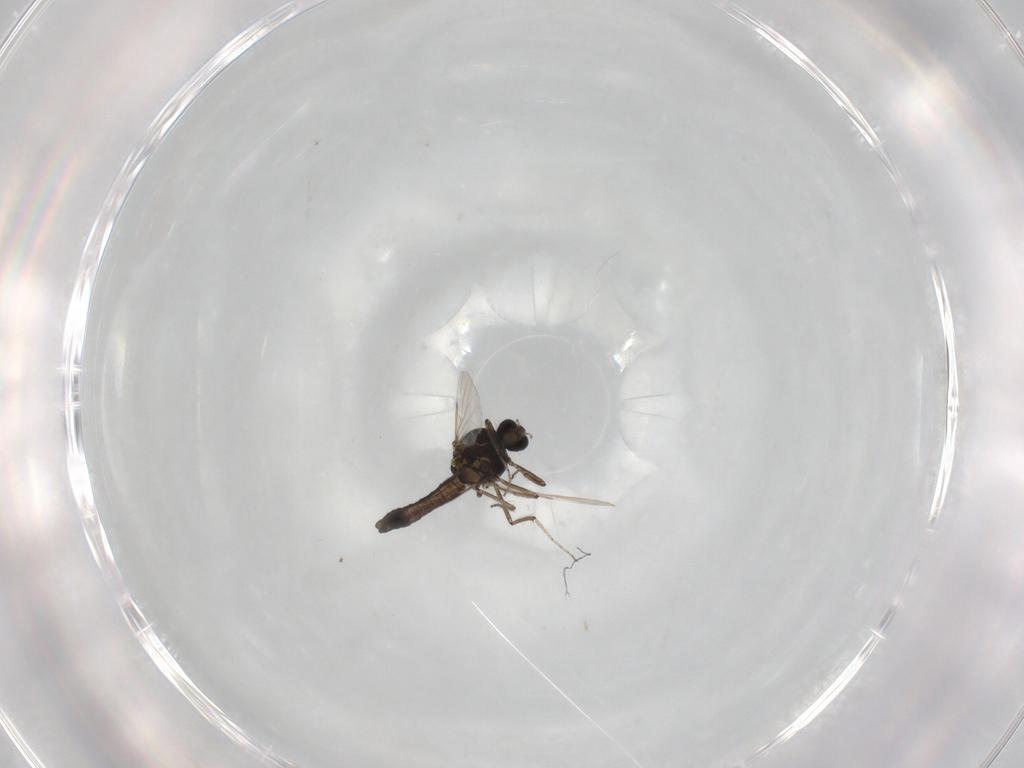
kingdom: Animalia
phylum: Arthropoda
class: Insecta
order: Diptera
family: Ceratopogonidae
